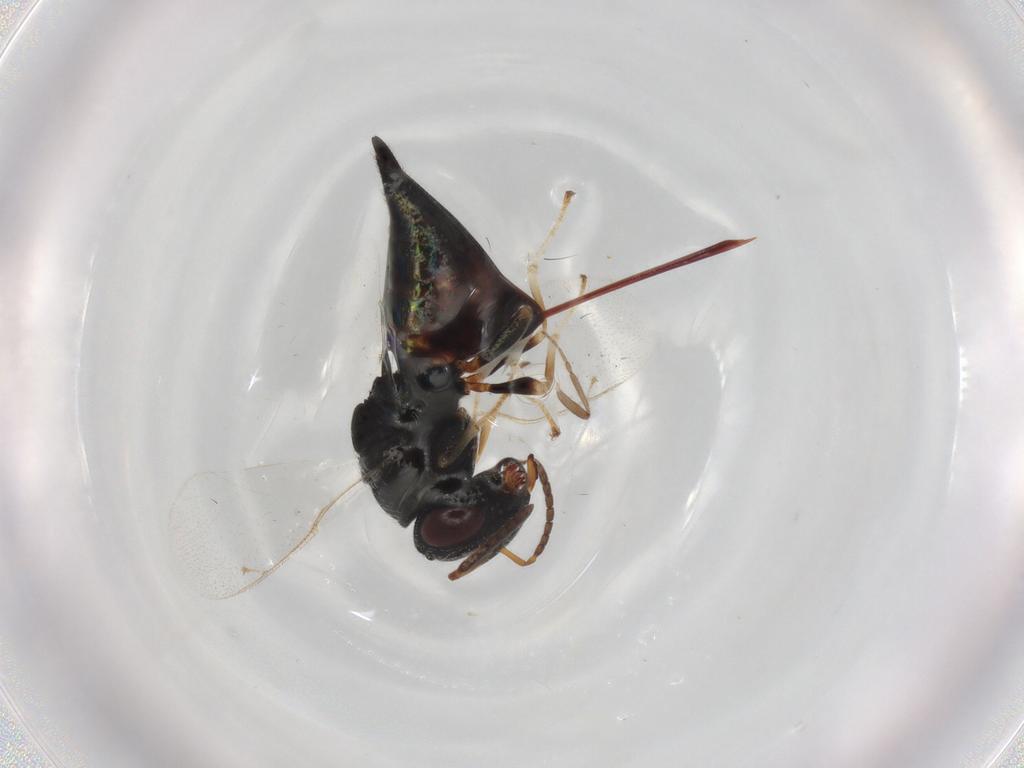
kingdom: Animalia
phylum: Arthropoda
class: Insecta
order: Hymenoptera
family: Pteromalidae
